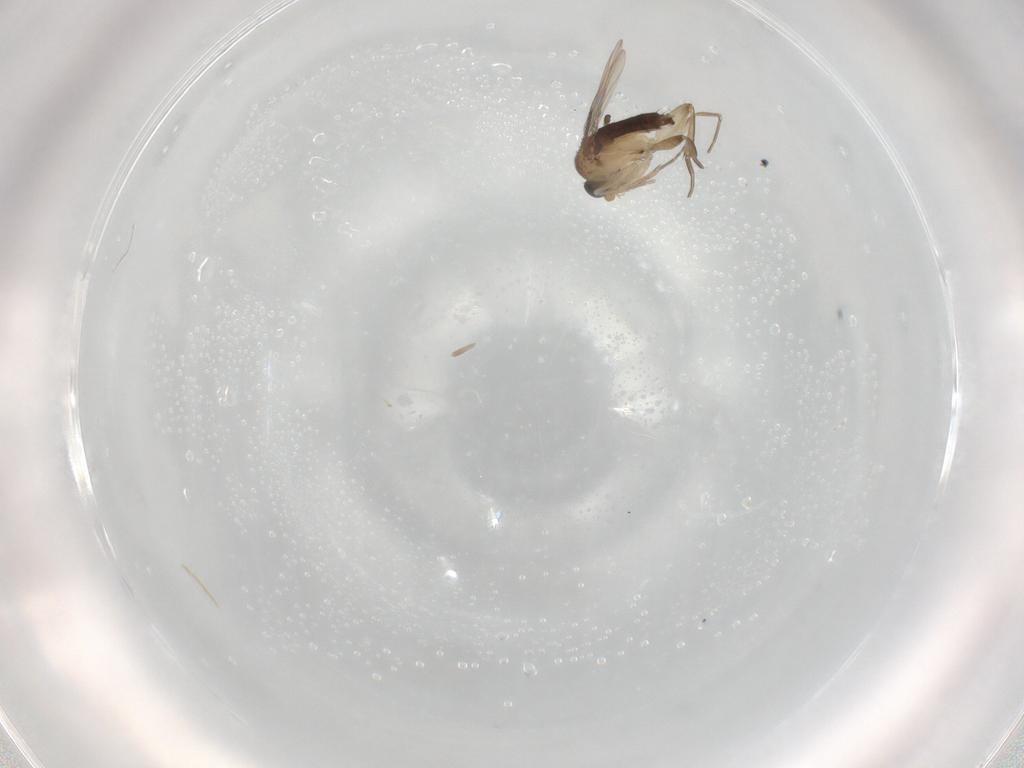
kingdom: Animalia
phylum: Arthropoda
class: Insecta
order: Diptera
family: Phoridae
